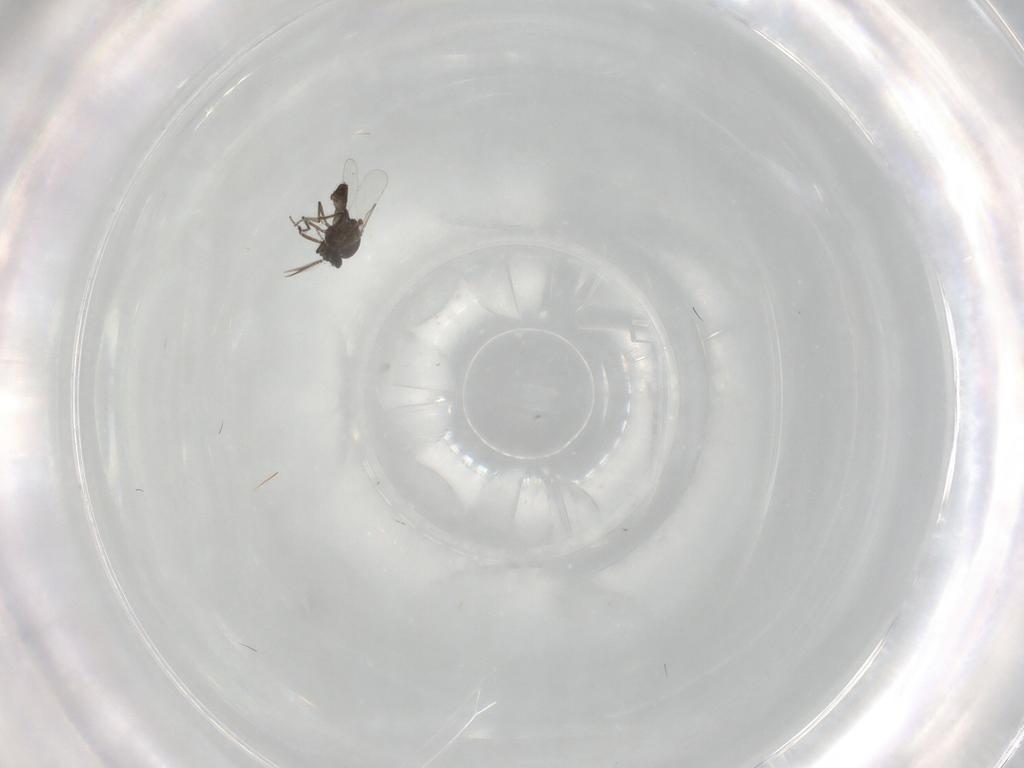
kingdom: Animalia
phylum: Arthropoda
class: Insecta
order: Diptera
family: Ceratopogonidae
